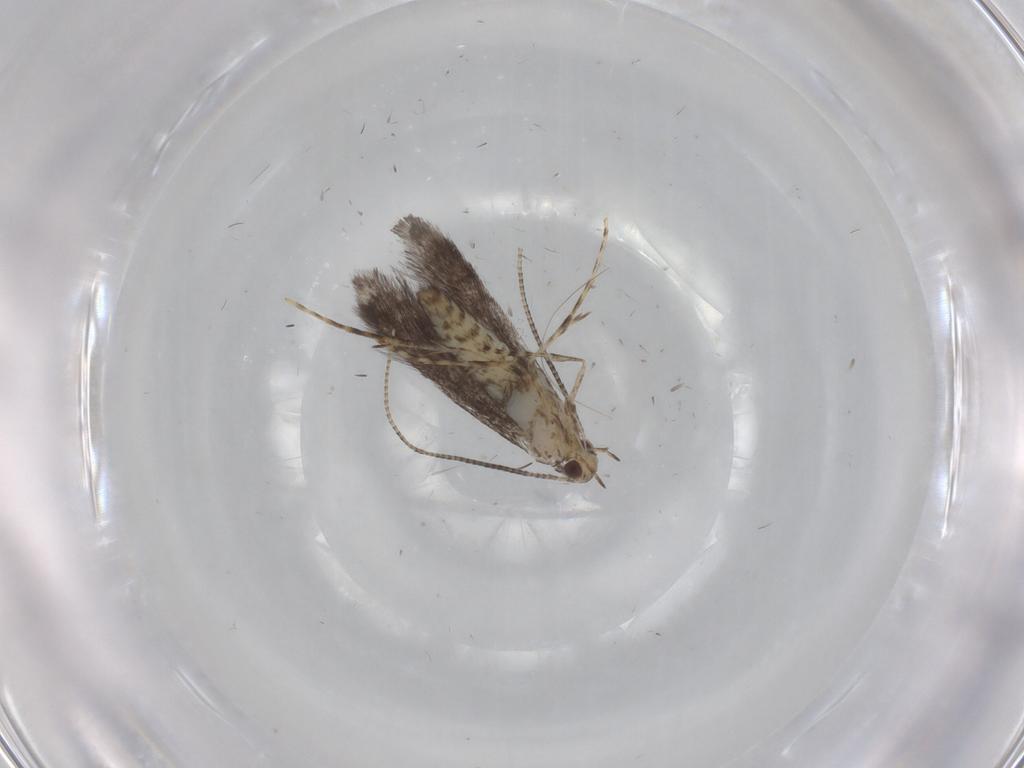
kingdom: Animalia
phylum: Arthropoda
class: Insecta
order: Lepidoptera
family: Gracillariidae
